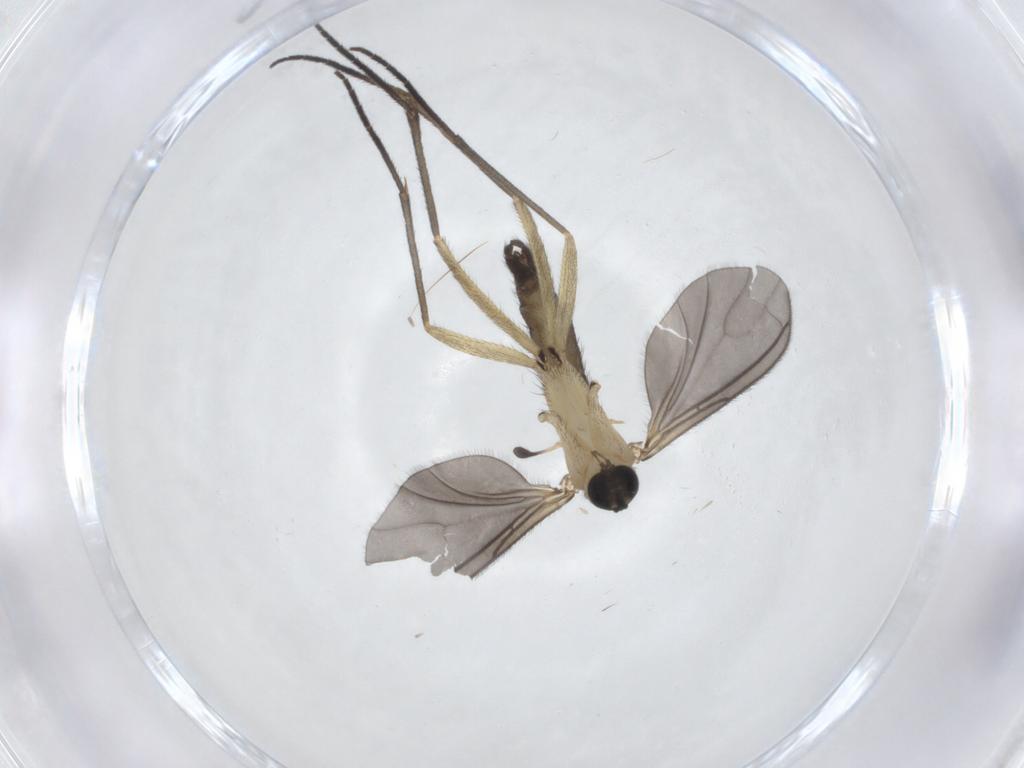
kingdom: Animalia
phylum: Arthropoda
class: Insecta
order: Diptera
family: Sciaridae
